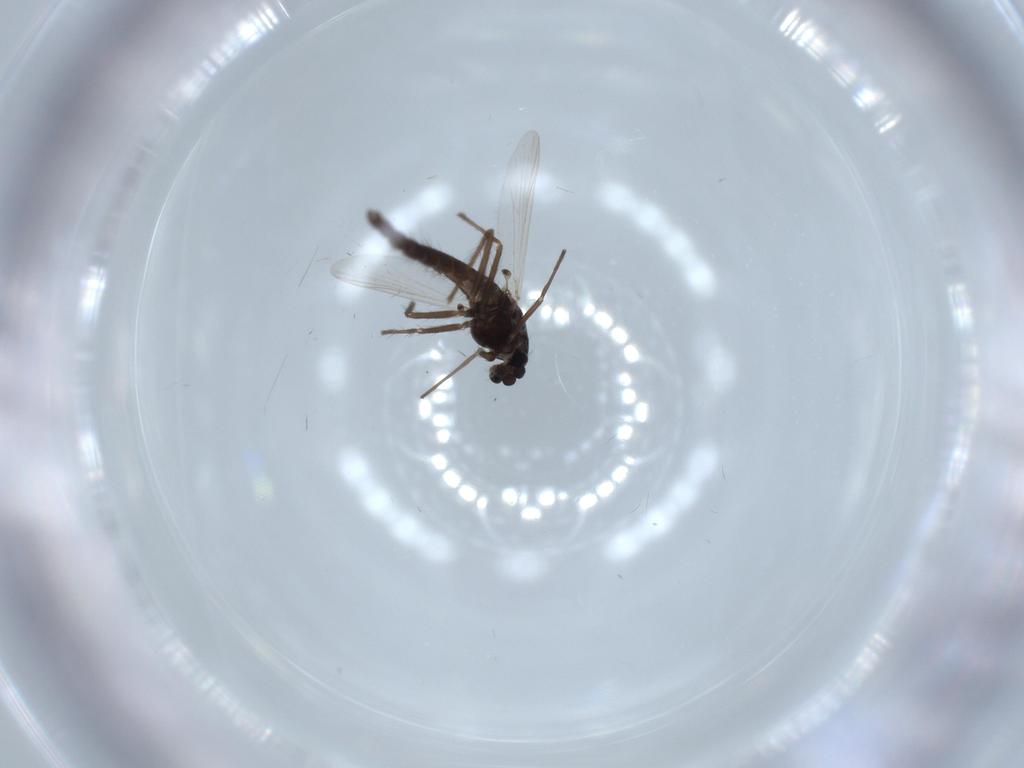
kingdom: Animalia
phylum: Arthropoda
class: Insecta
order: Diptera
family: Chironomidae
